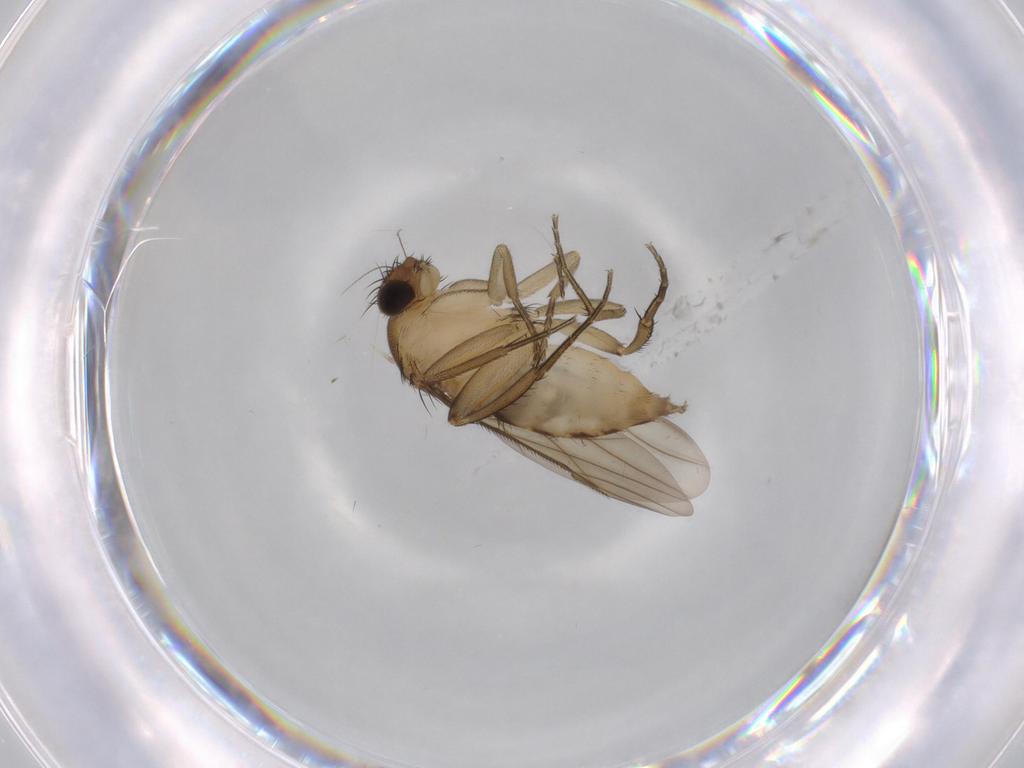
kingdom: Animalia
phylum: Arthropoda
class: Insecta
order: Diptera
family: Phoridae
